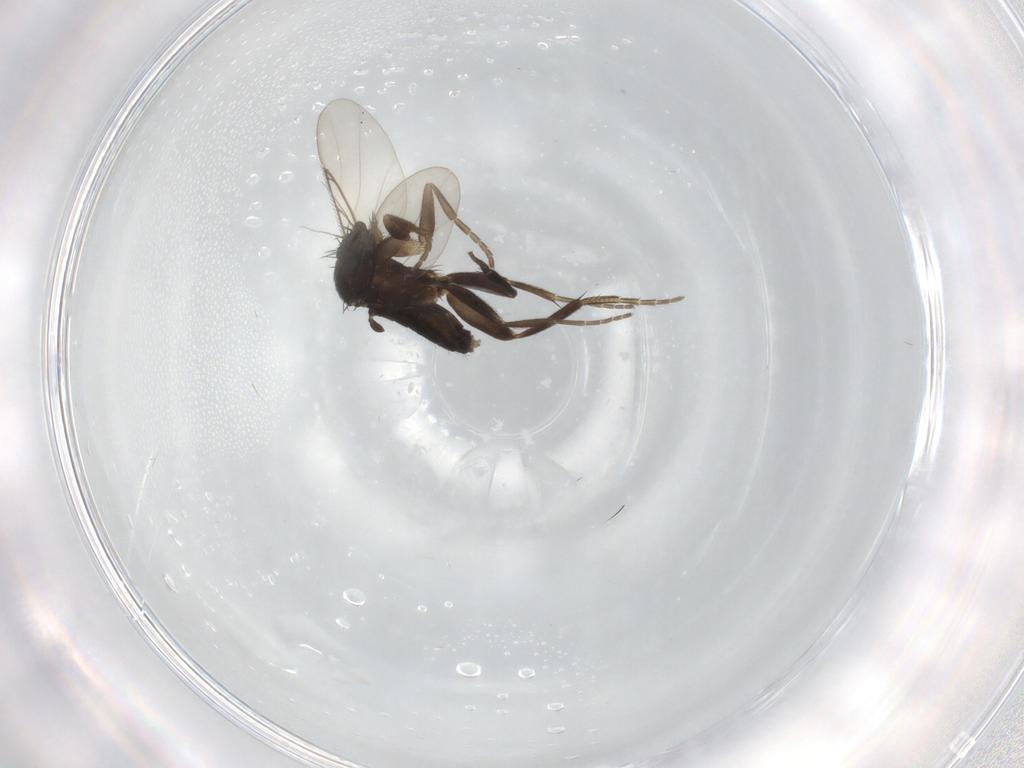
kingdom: Animalia
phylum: Arthropoda
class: Insecta
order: Diptera
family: Phoridae
